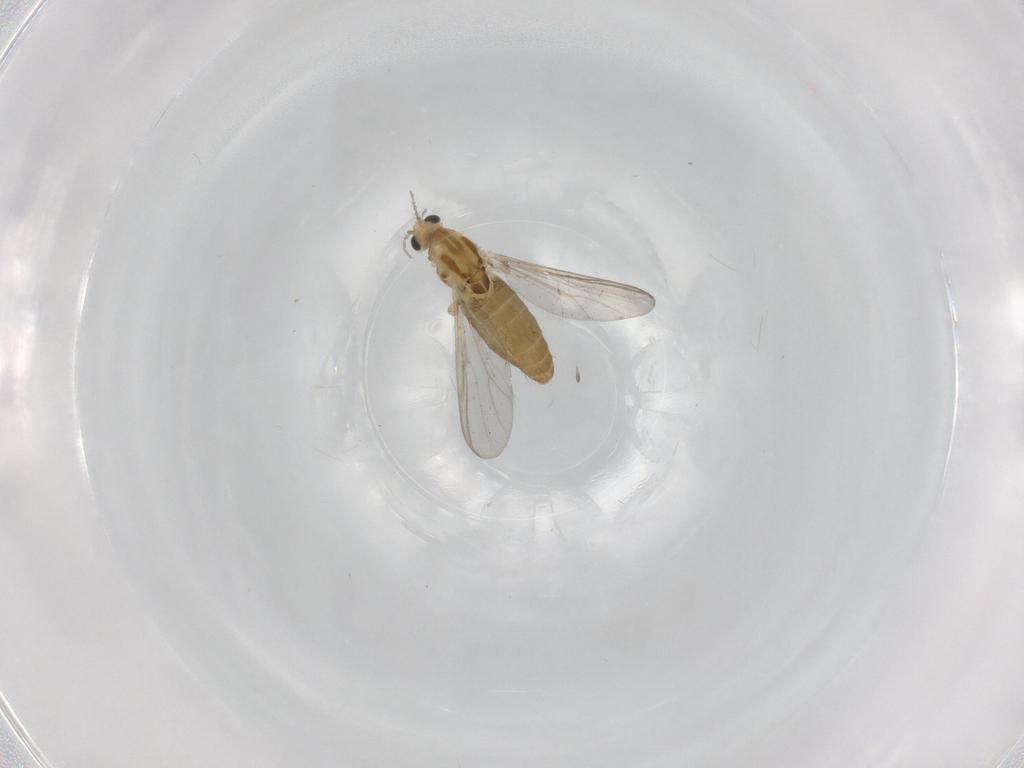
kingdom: Animalia
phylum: Arthropoda
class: Insecta
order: Diptera
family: Chironomidae
